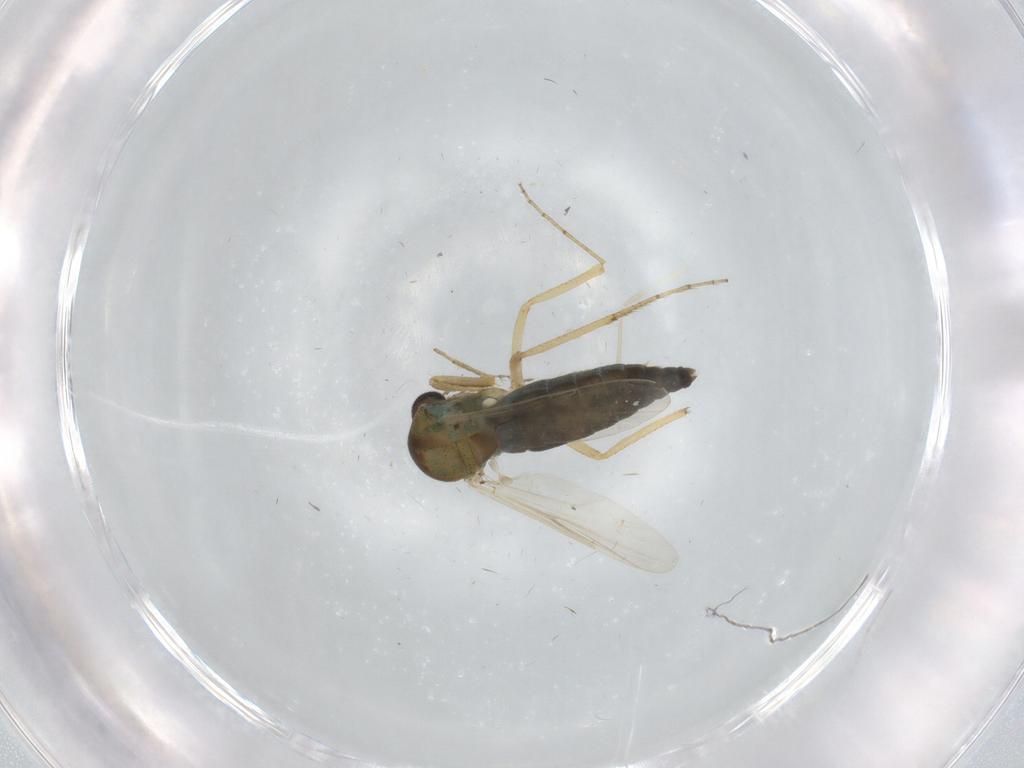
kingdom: Animalia
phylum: Arthropoda
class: Insecta
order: Diptera
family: Ceratopogonidae
